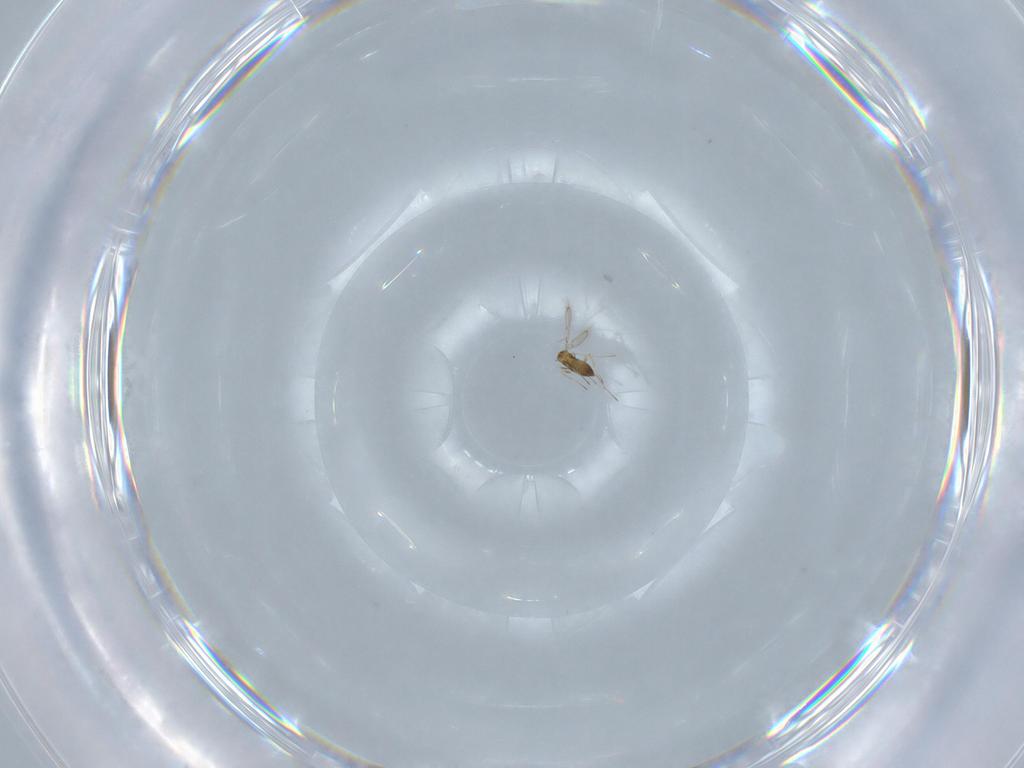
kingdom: Animalia
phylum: Arthropoda
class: Insecta
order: Hymenoptera
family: Trichogrammatidae
